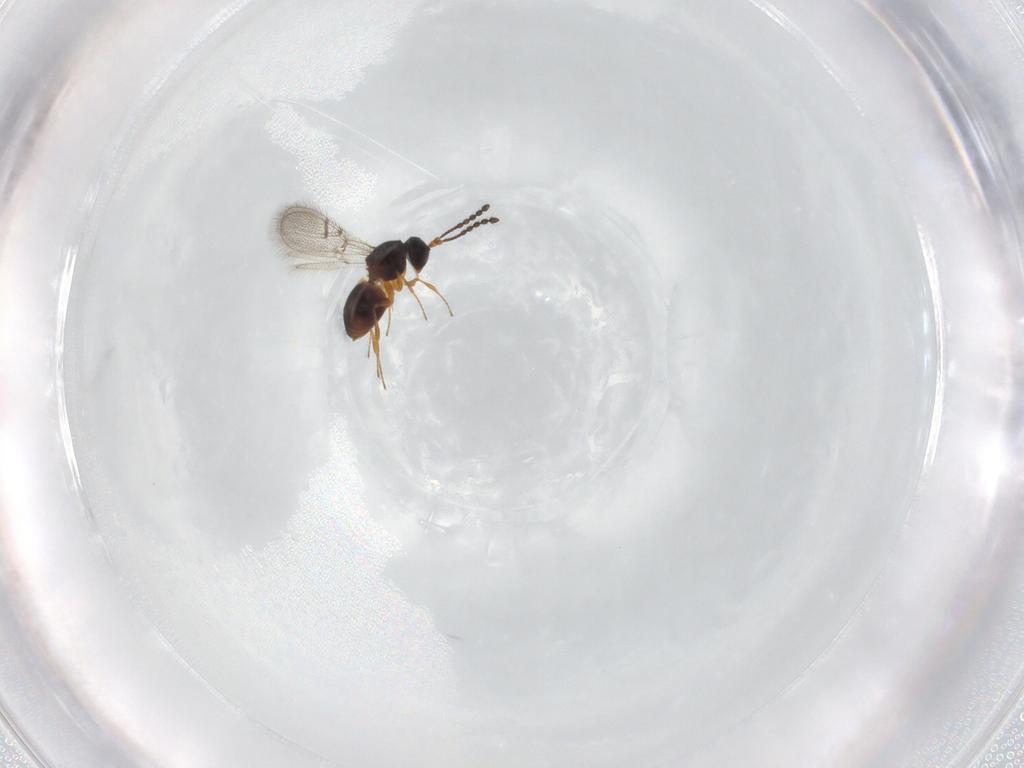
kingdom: Animalia
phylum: Arthropoda
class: Insecta
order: Hymenoptera
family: Figitidae
